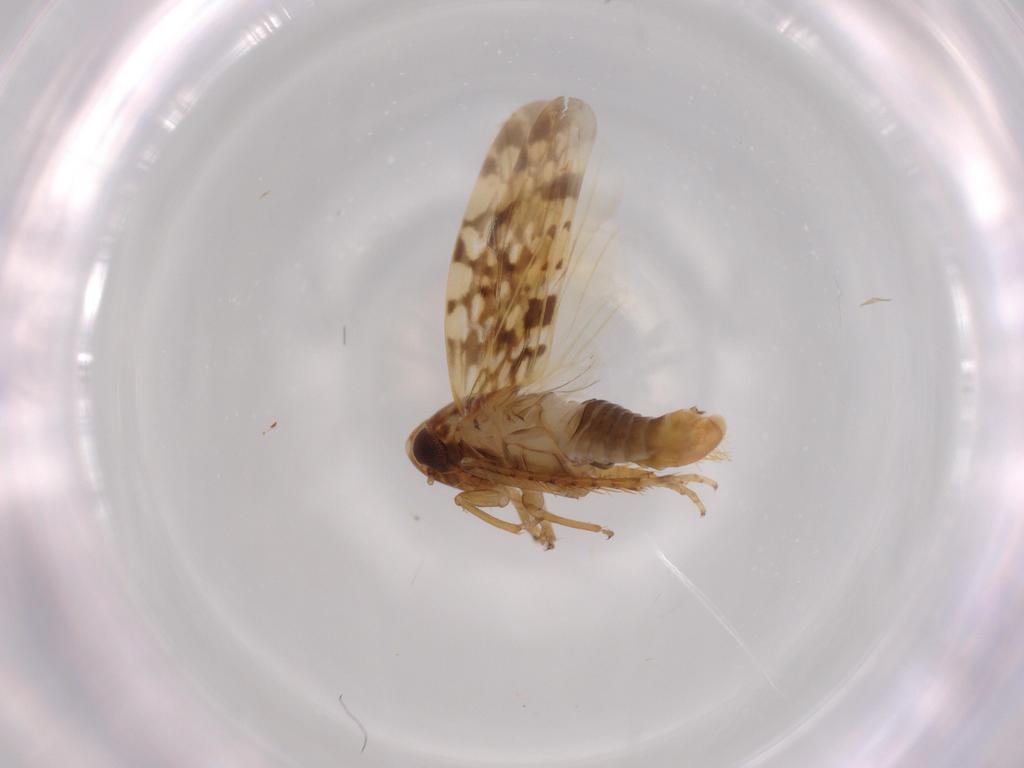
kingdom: Animalia
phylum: Arthropoda
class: Insecta
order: Hemiptera
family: Cicadellidae
